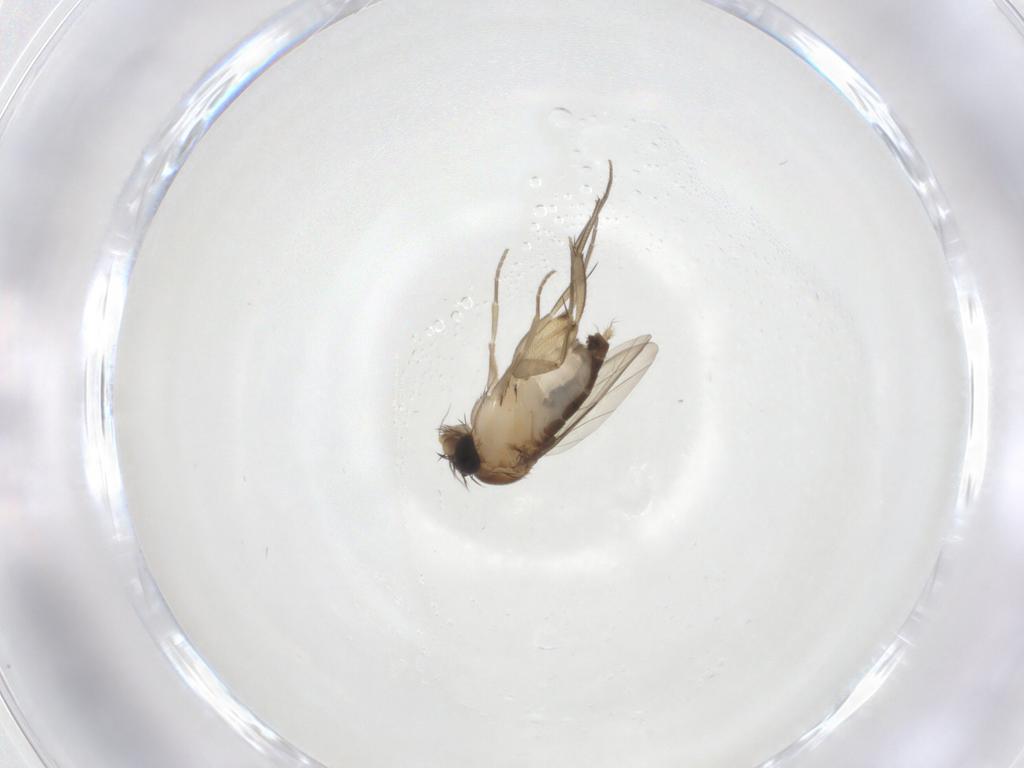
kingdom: Animalia
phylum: Arthropoda
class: Insecta
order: Diptera
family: Phoridae
